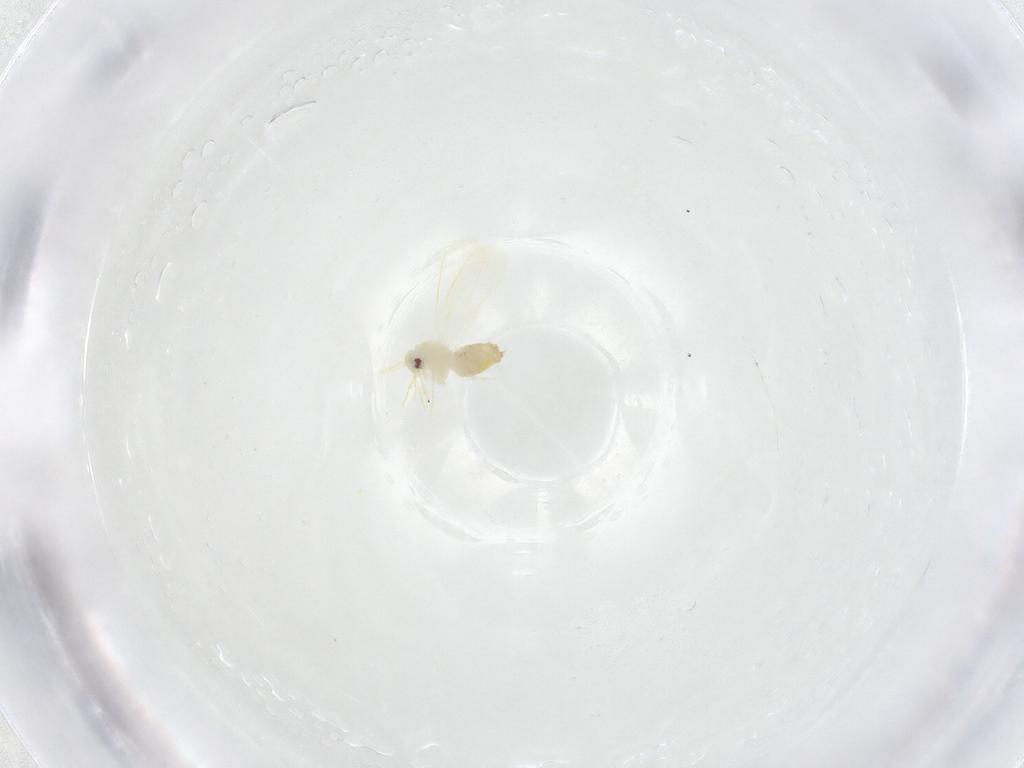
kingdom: Animalia
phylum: Arthropoda
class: Insecta
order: Hemiptera
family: Aleyrodidae
